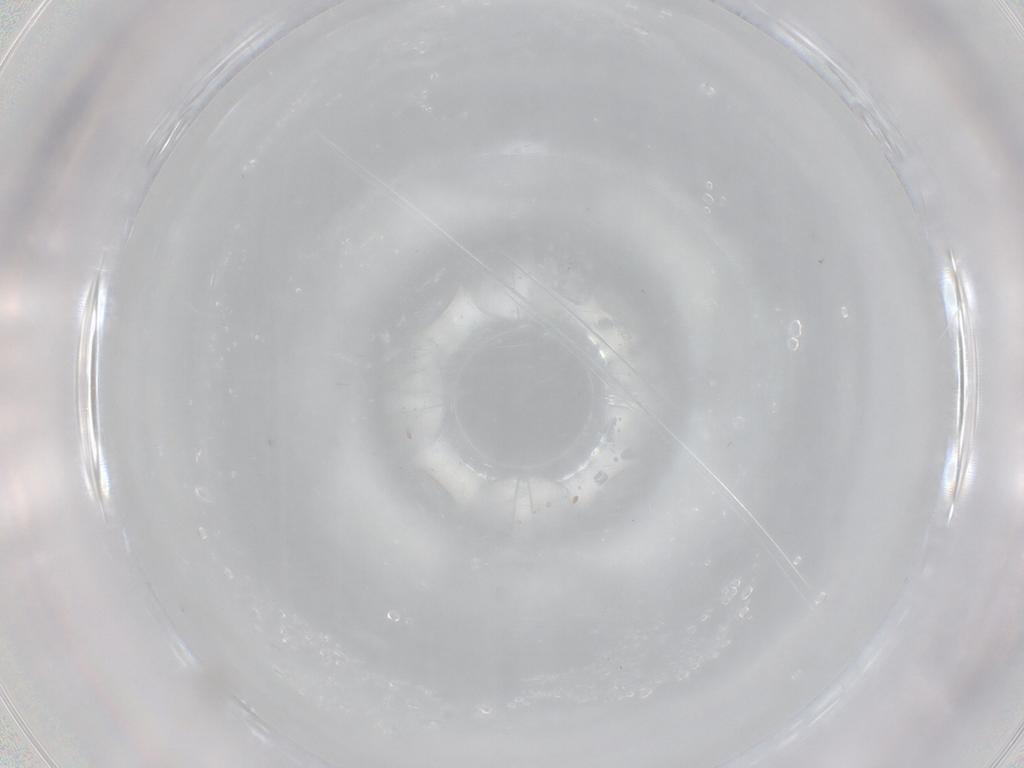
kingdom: Animalia
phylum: Arthropoda
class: Collembola
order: Entomobryomorpha
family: Entomobryidae
